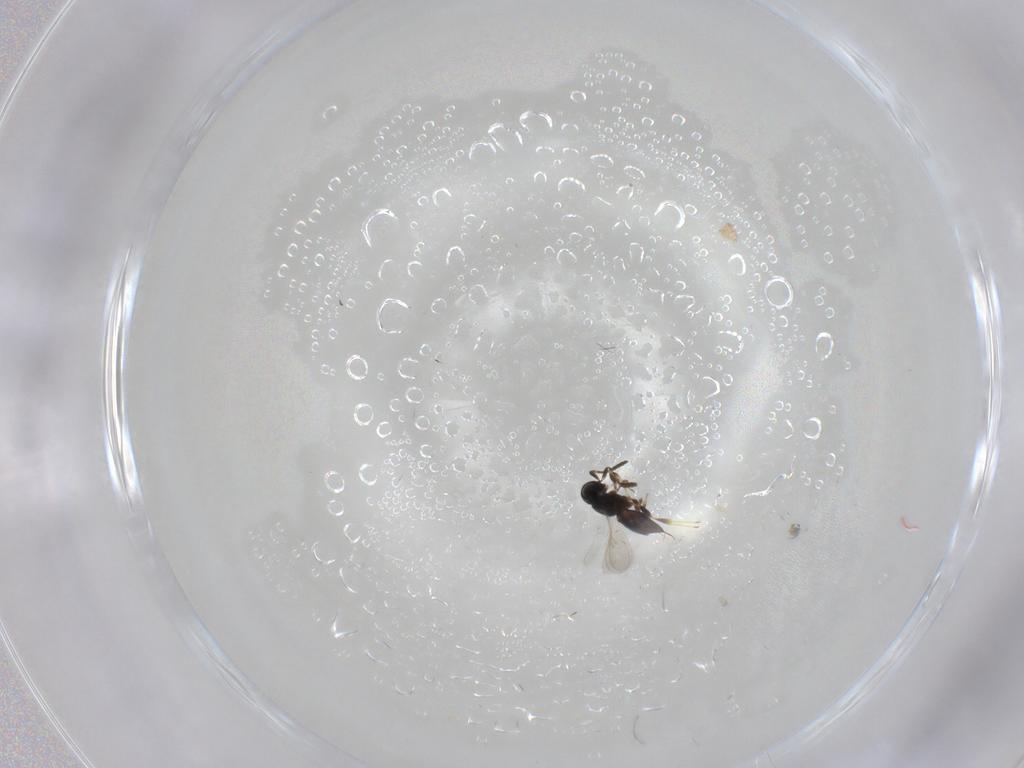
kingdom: Animalia
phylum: Arthropoda
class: Insecta
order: Hymenoptera
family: Scelionidae
